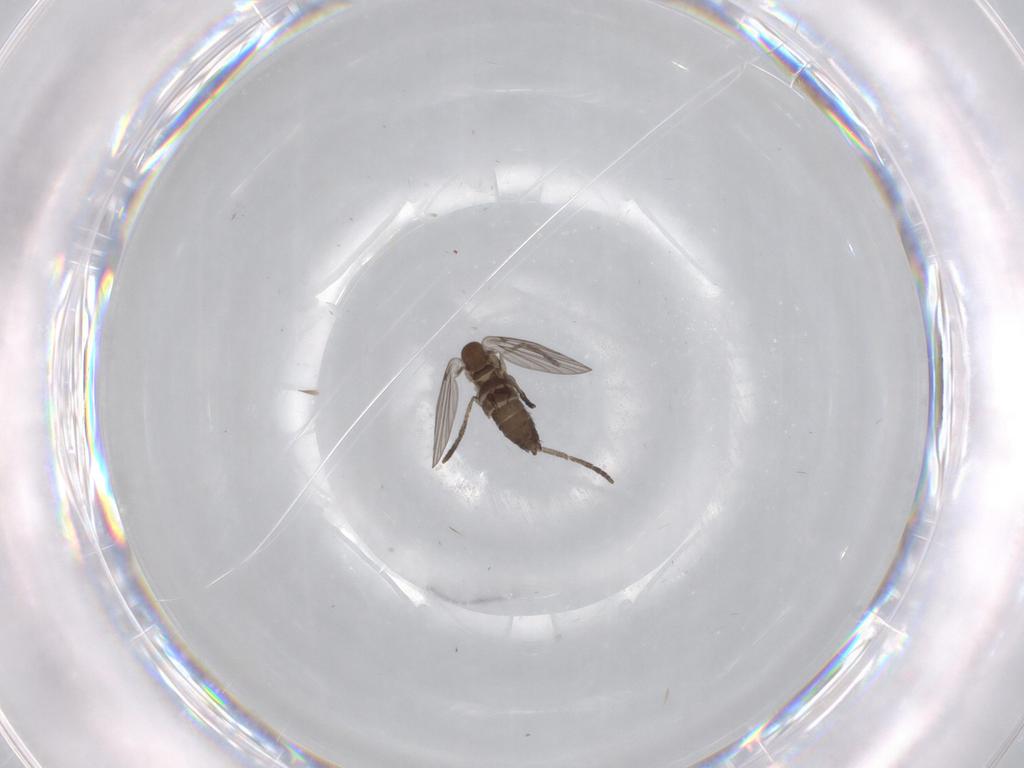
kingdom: Animalia
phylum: Arthropoda
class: Insecta
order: Diptera
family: Cecidomyiidae
